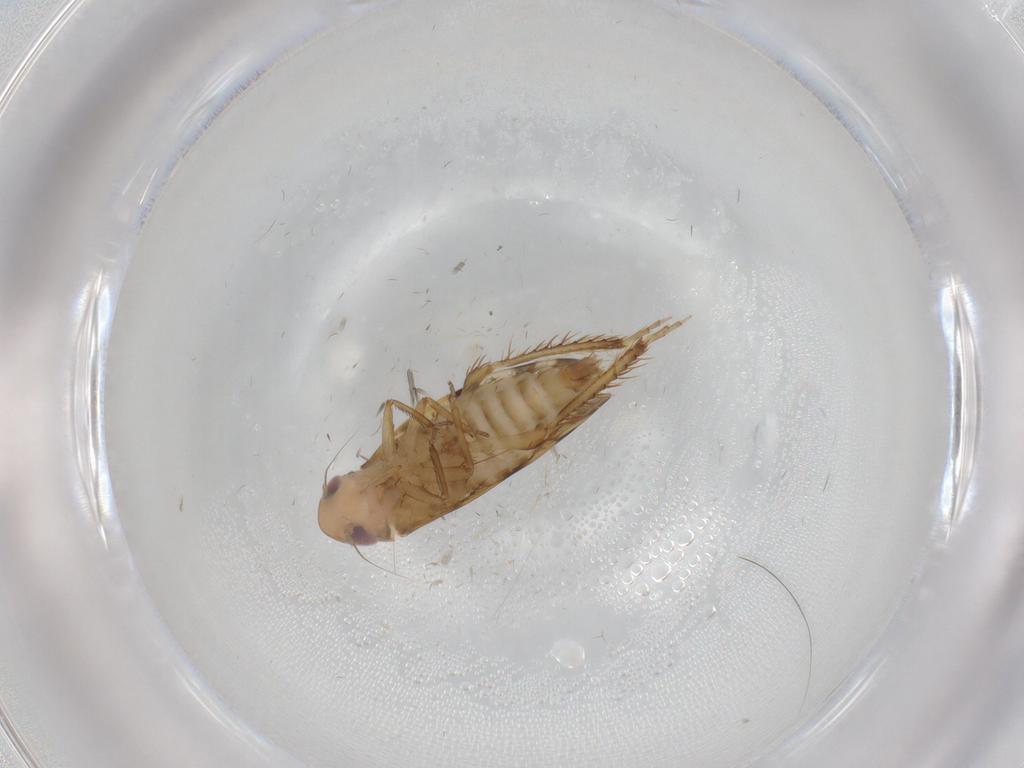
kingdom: Animalia
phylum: Arthropoda
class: Insecta
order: Hemiptera
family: Cicadellidae
